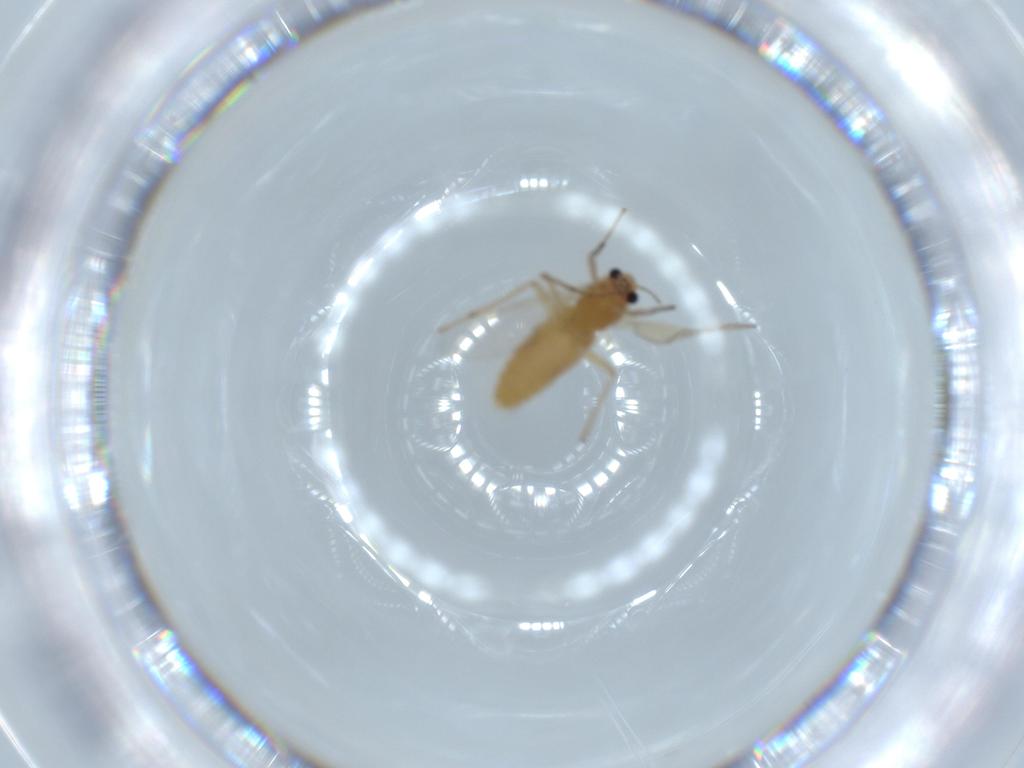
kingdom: Animalia
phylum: Arthropoda
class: Insecta
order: Diptera
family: Chironomidae
